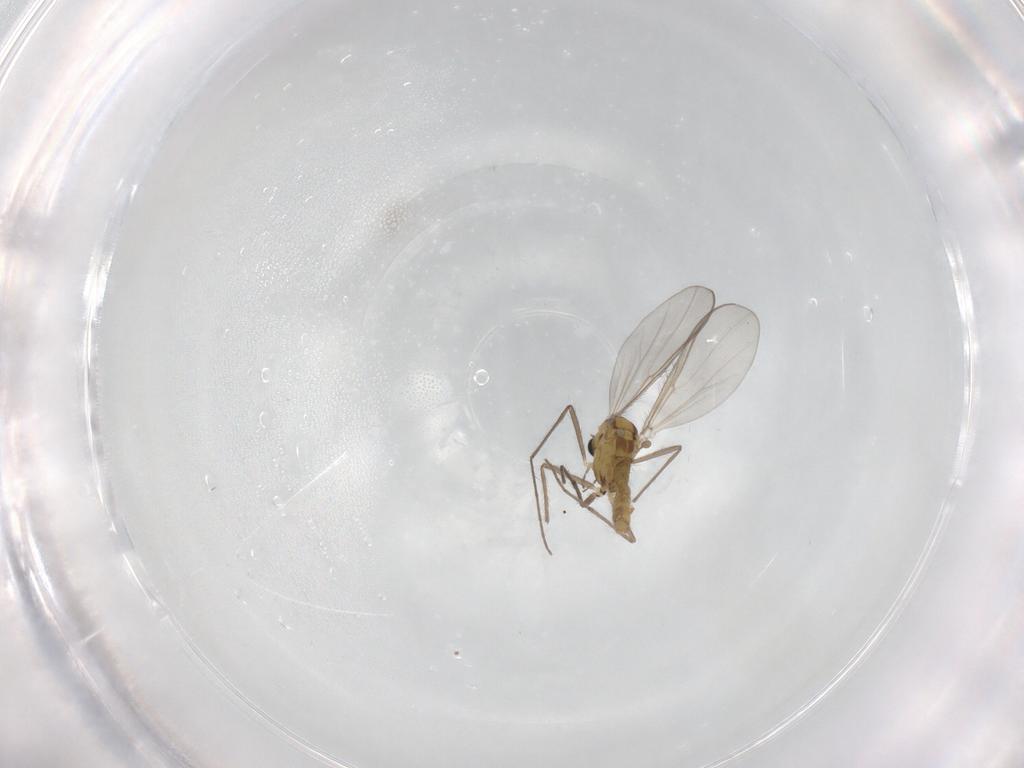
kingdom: Animalia
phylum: Arthropoda
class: Insecta
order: Diptera
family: Chironomidae
